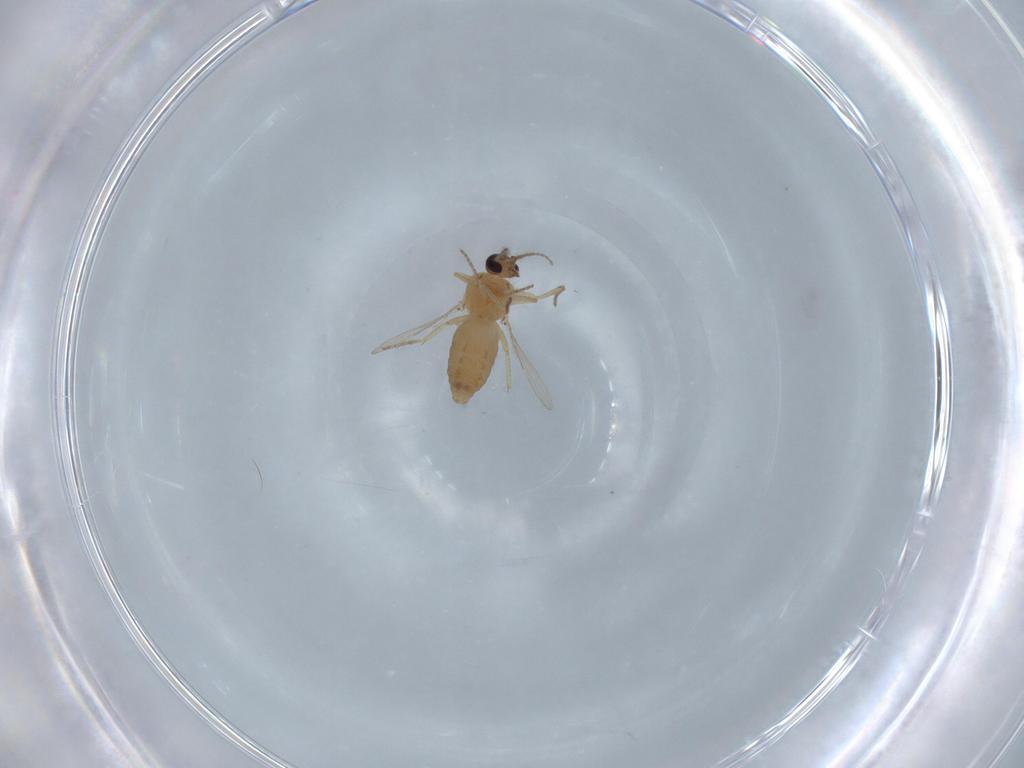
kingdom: Animalia
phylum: Arthropoda
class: Insecta
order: Diptera
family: Ceratopogonidae
